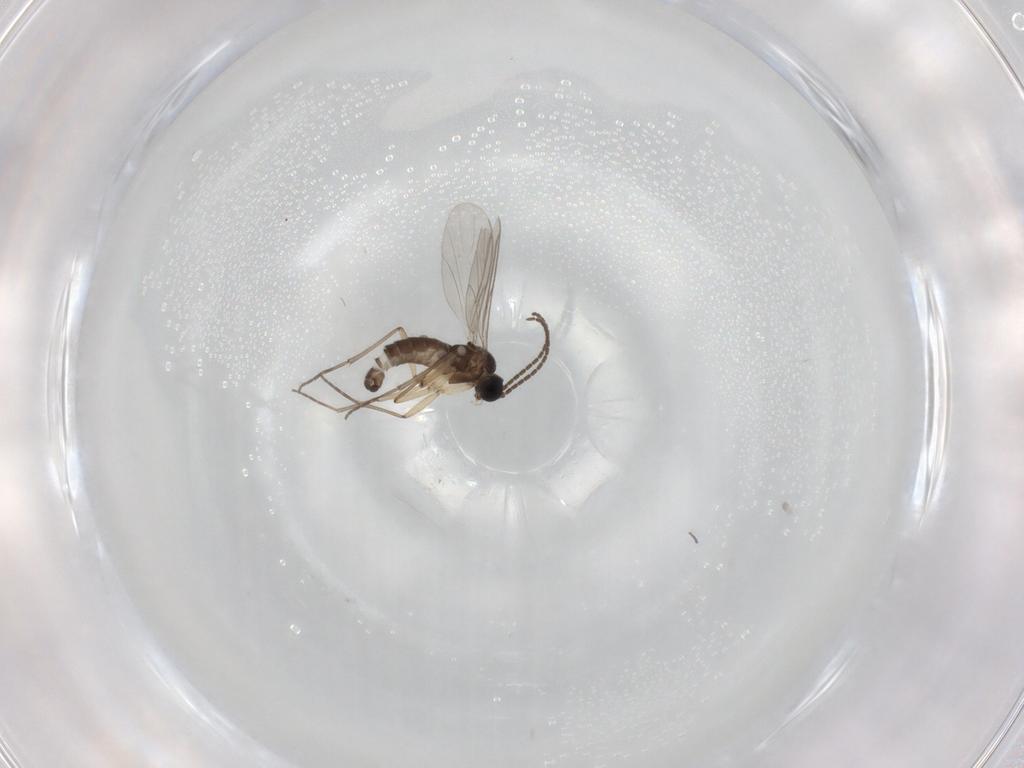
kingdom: Animalia
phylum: Arthropoda
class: Insecta
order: Diptera
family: Sciaridae
